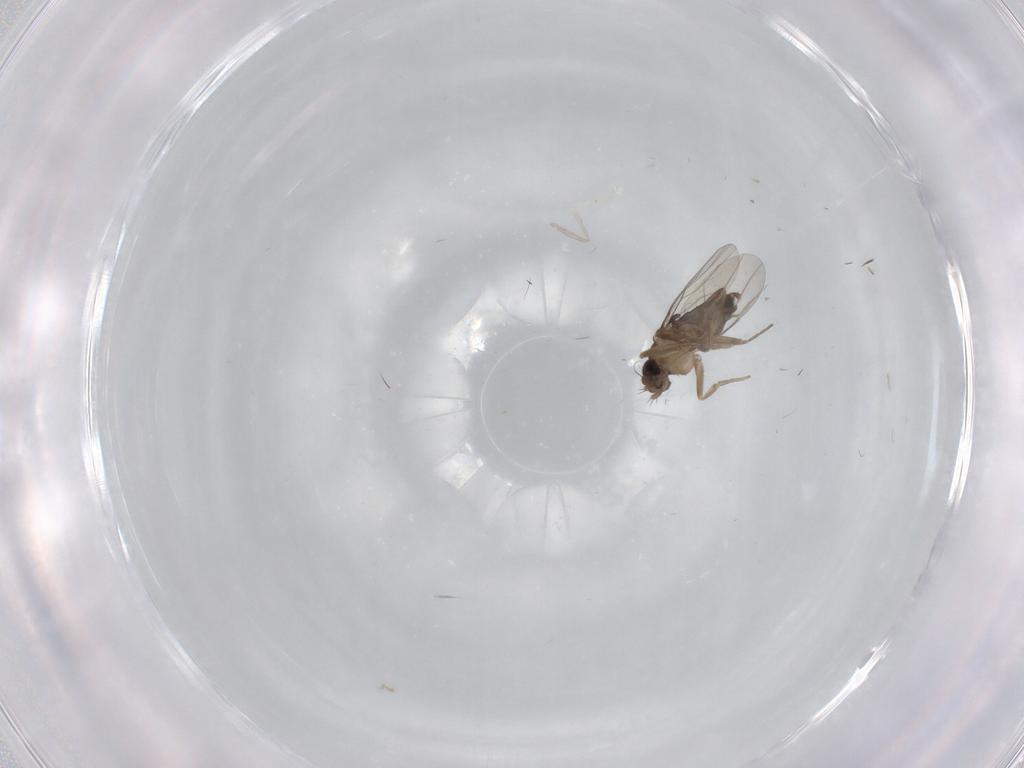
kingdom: Animalia
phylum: Arthropoda
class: Insecta
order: Diptera
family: Phoridae
